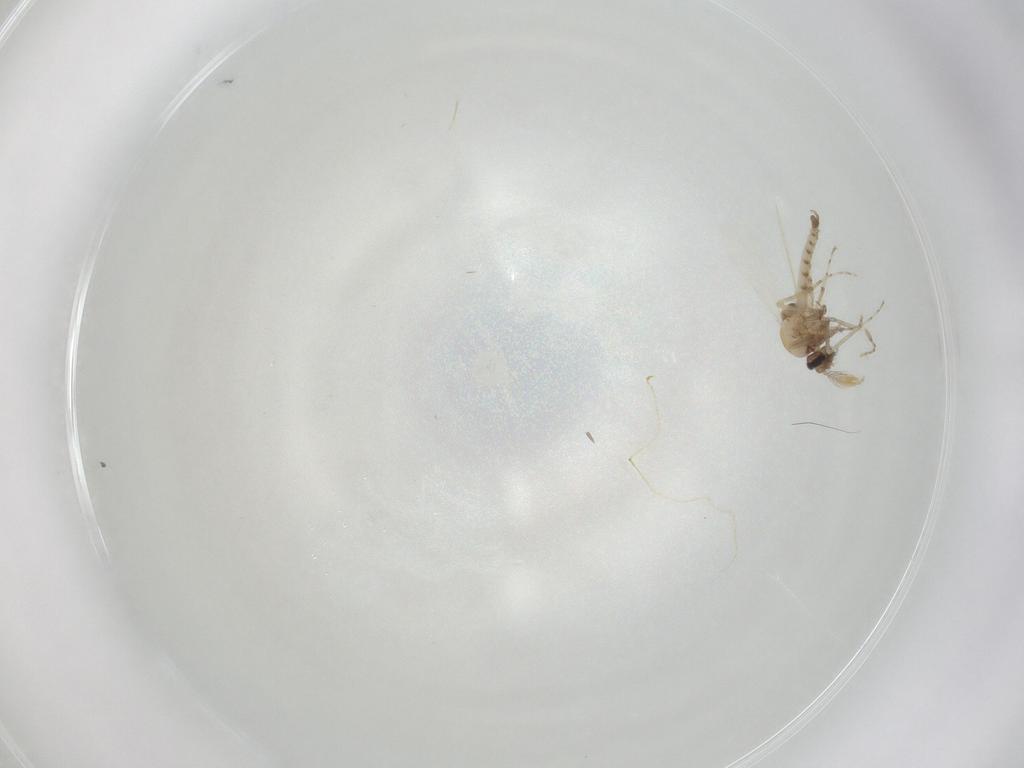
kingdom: Animalia
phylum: Arthropoda
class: Insecta
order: Diptera
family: Ceratopogonidae
